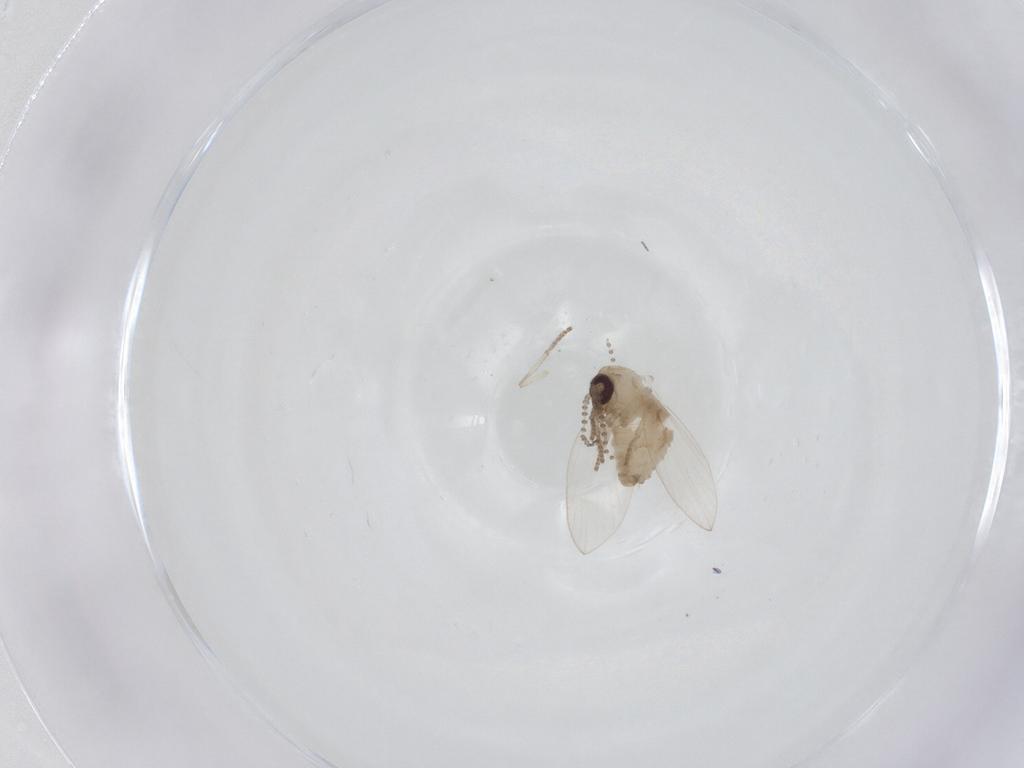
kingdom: Animalia
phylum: Arthropoda
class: Insecta
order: Diptera
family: Psychodidae
